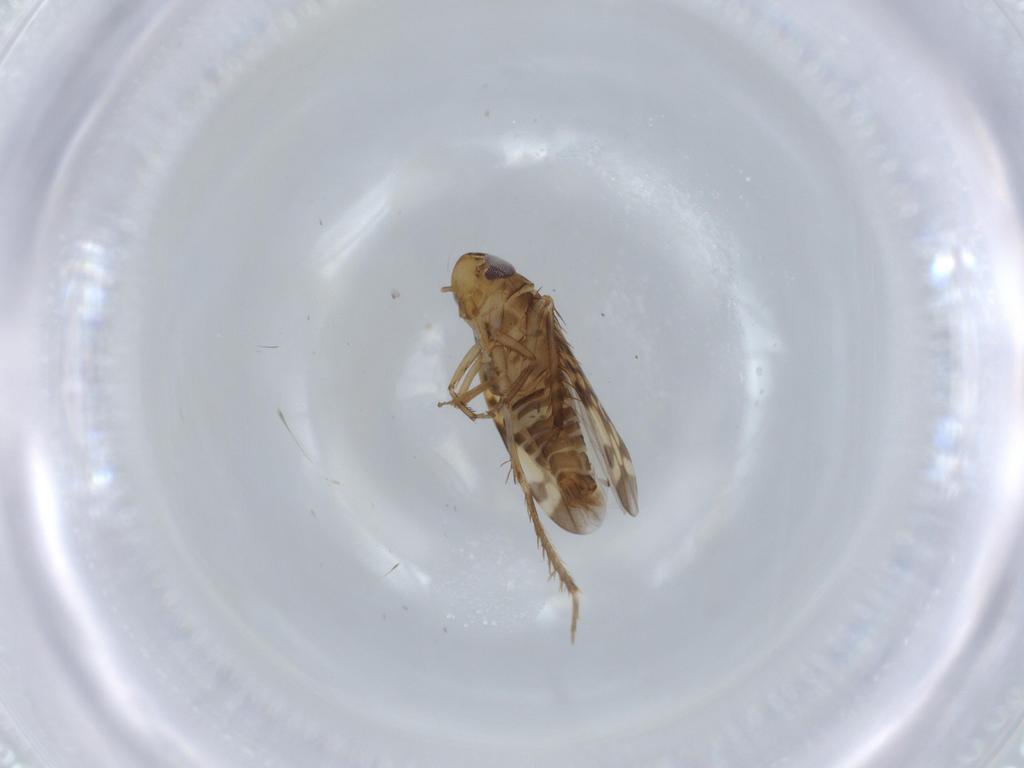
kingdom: Animalia
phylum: Arthropoda
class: Insecta
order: Hemiptera
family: Cicadellidae
